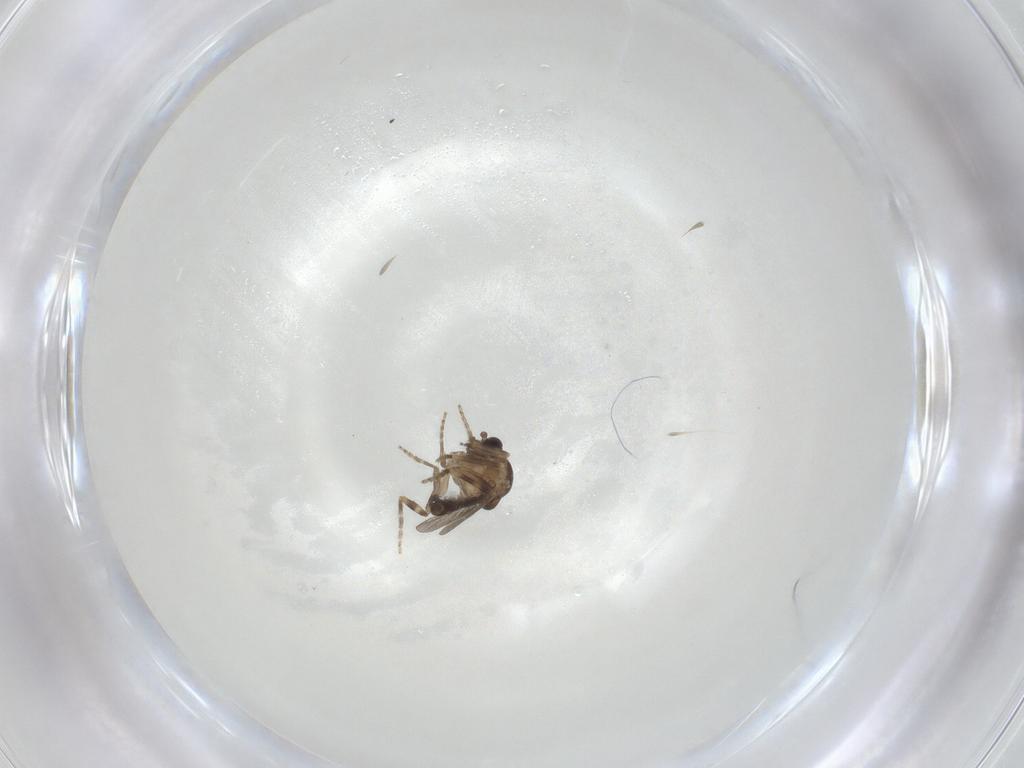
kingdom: Animalia
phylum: Arthropoda
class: Insecta
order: Diptera
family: Ceratopogonidae
